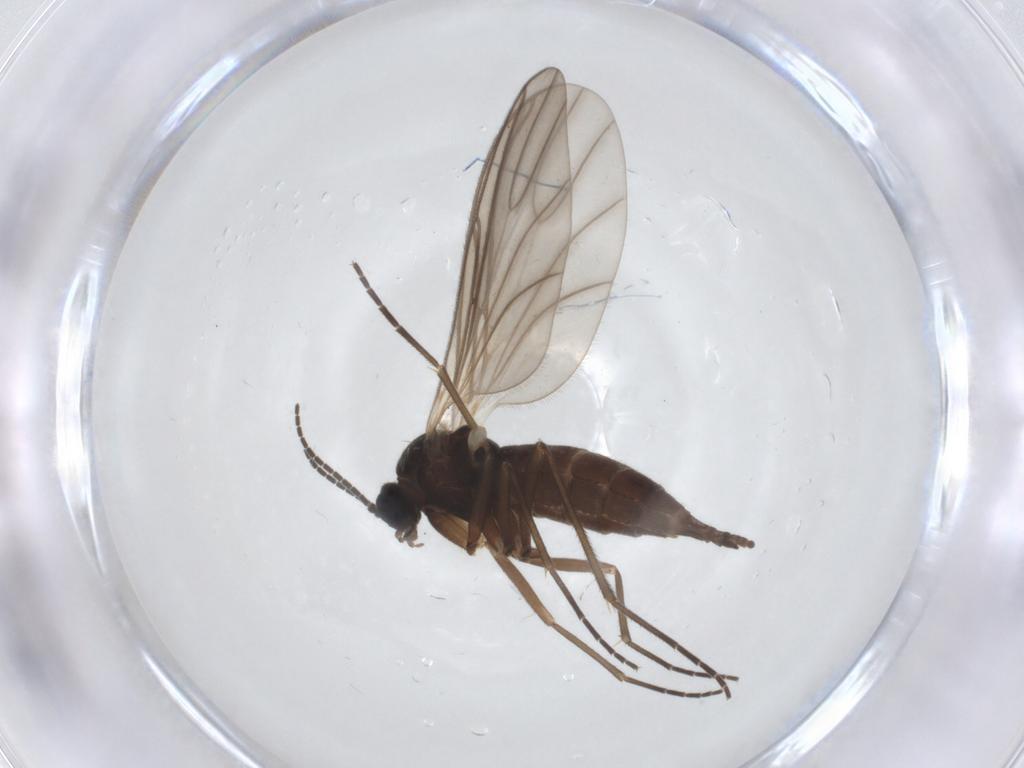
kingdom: Animalia
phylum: Arthropoda
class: Insecta
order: Diptera
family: Sciaridae
